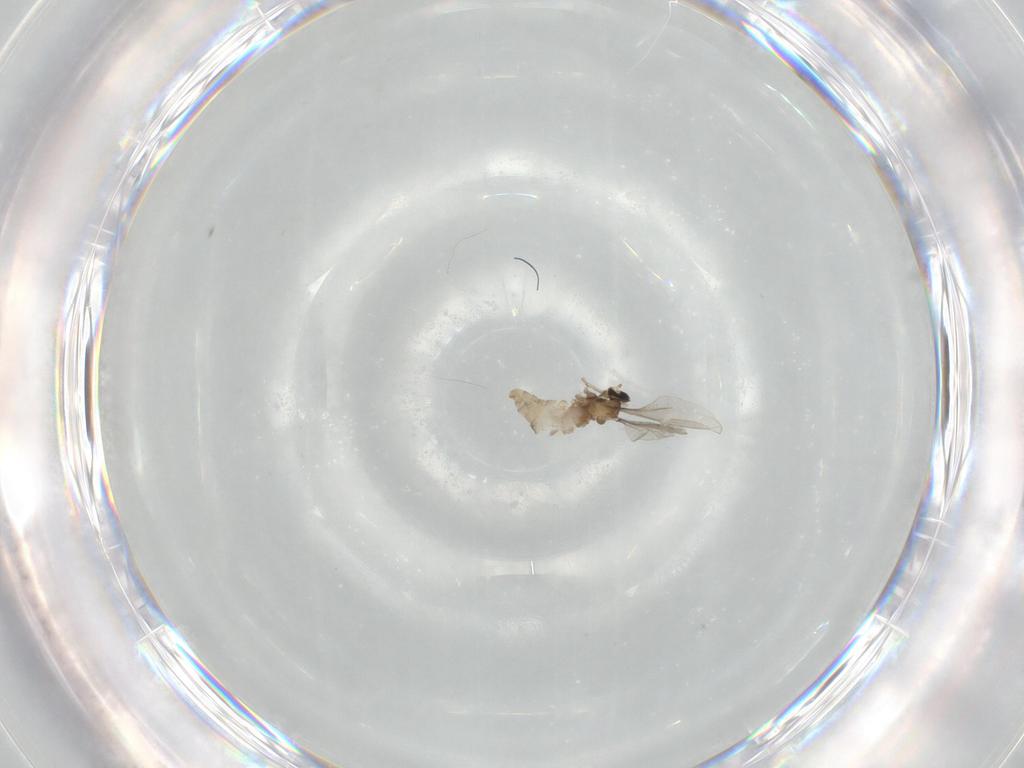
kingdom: Animalia
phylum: Arthropoda
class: Insecta
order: Diptera
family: Cecidomyiidae
